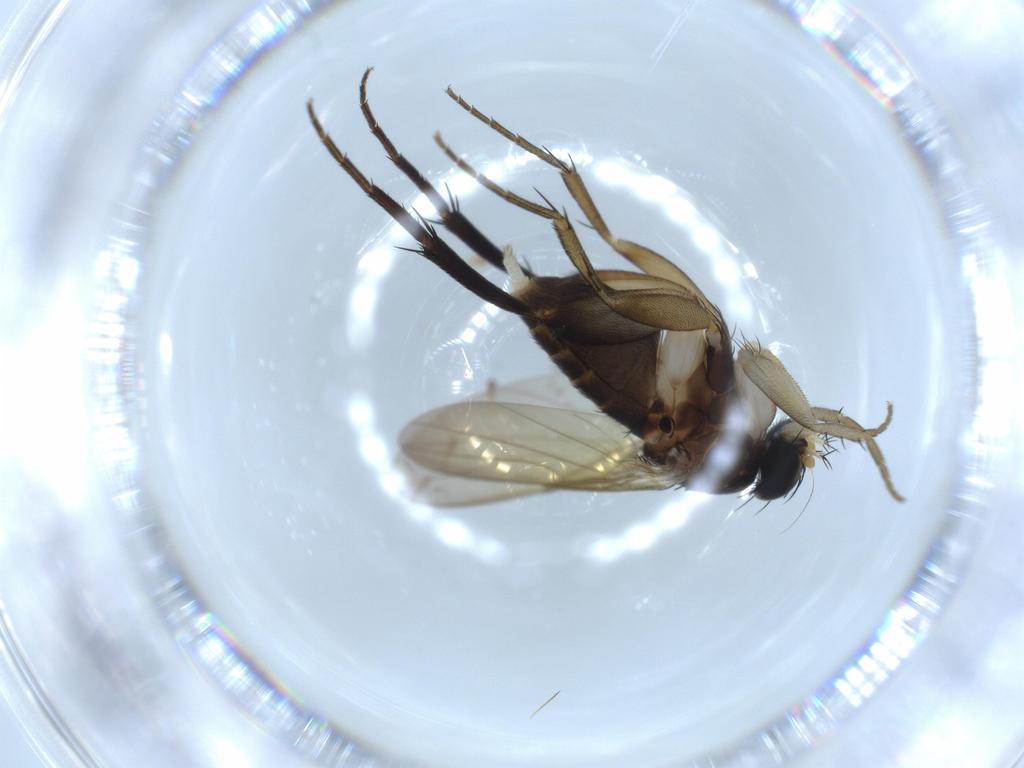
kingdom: Animalia
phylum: Arthropoda
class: Insecta
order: Diptera
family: Phoridae
